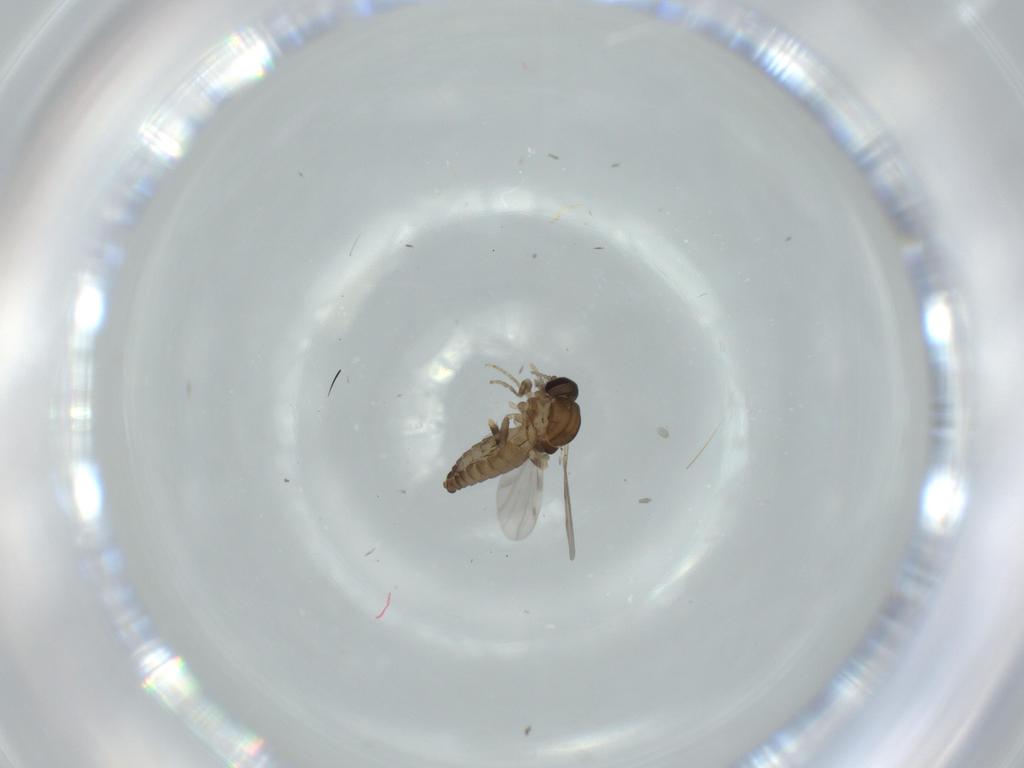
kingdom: Animalia
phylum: Arthropoda
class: Insecta
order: Diptera
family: Ceratopogonidae
